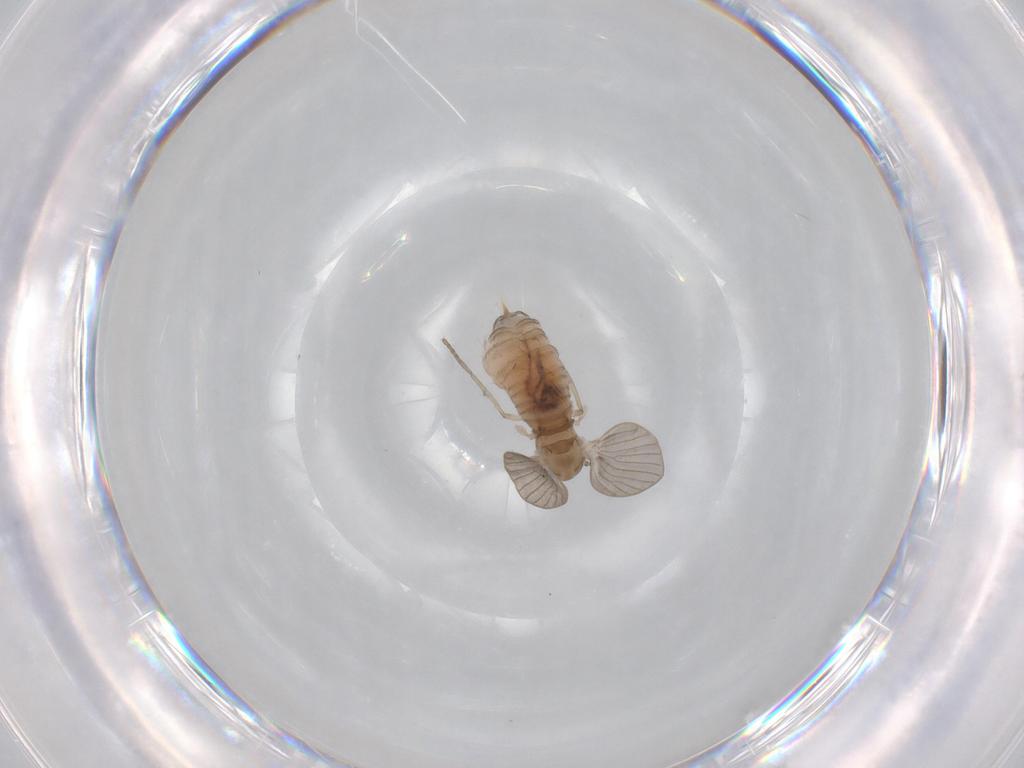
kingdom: Animalia
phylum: Arthropoda
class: Insecta
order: Diptera
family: Psychodidae
